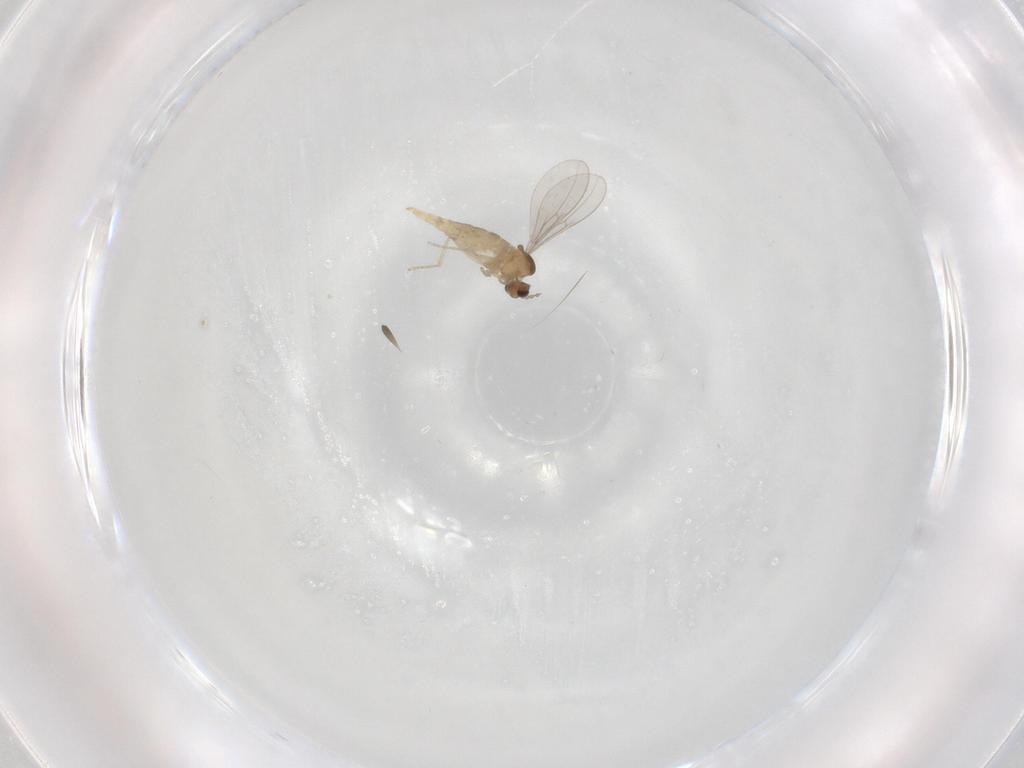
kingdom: Animalia
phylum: Arthropoda
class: Insecta
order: Diptera
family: Cecidomyiidae
